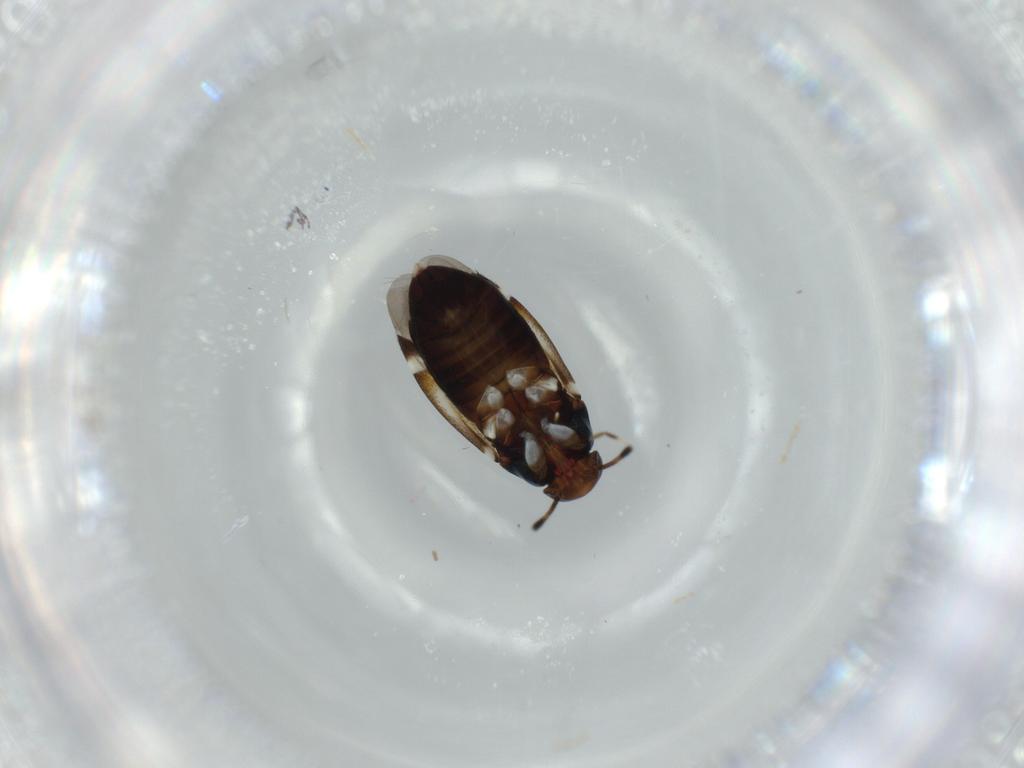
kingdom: Animalia
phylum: Arthropoda
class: Insecta
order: Hemiptera
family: Miridae
